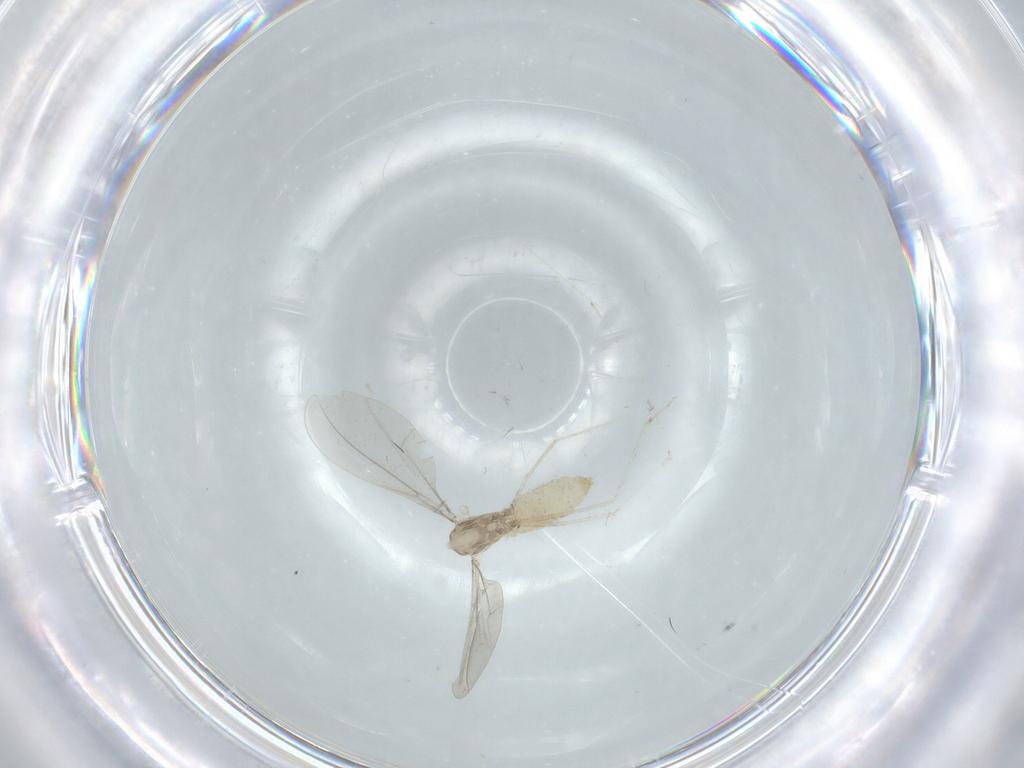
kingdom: Animalia
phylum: Arthropoda
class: Insecta
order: Diptera
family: Cecidomyiidae
